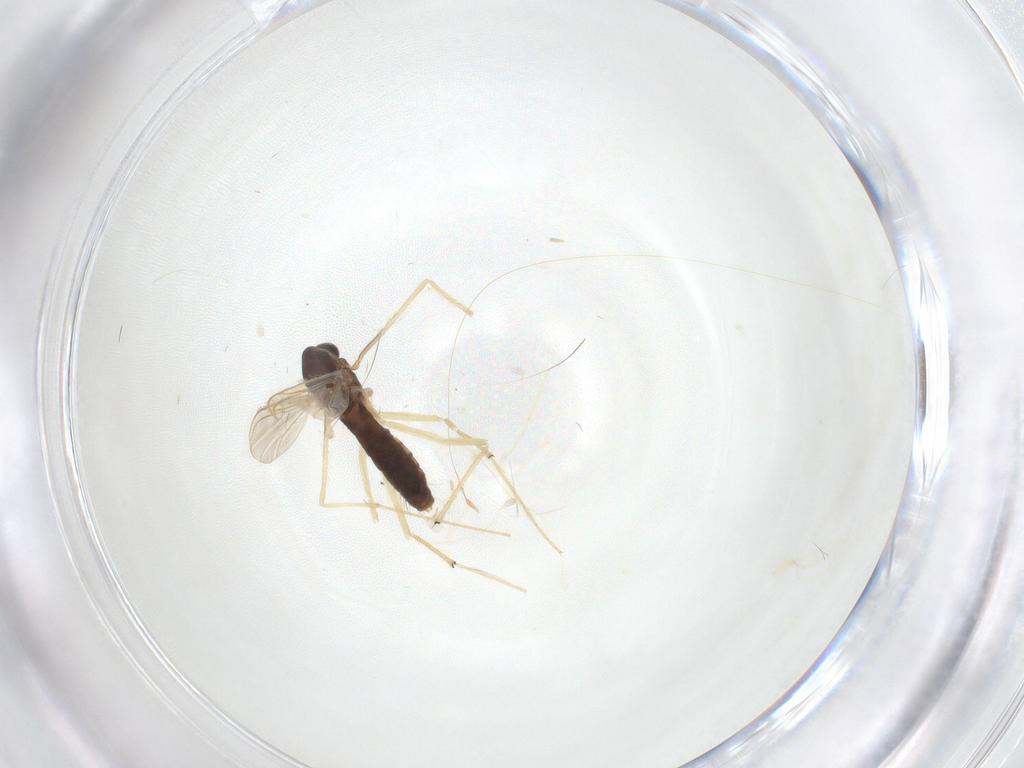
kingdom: Animalia
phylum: Arthropoda
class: Insecta
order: Diptera
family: Chironomidae
